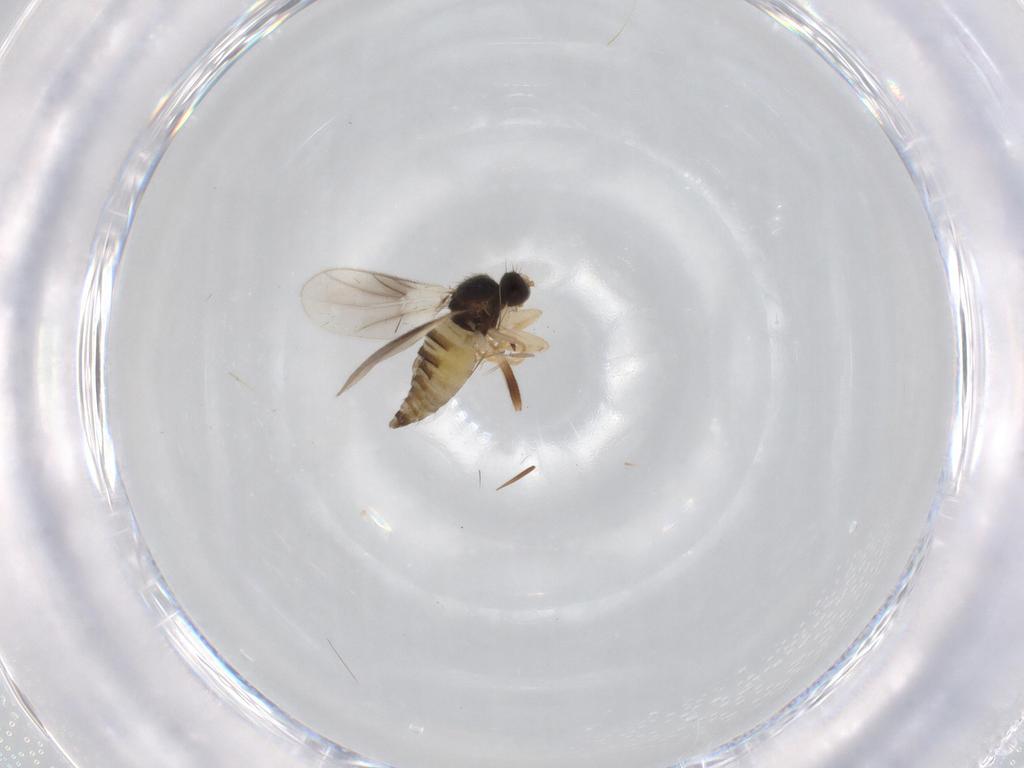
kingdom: Animalia
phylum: Arthropoda
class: Insecta
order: Diptera
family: Hybotidae
